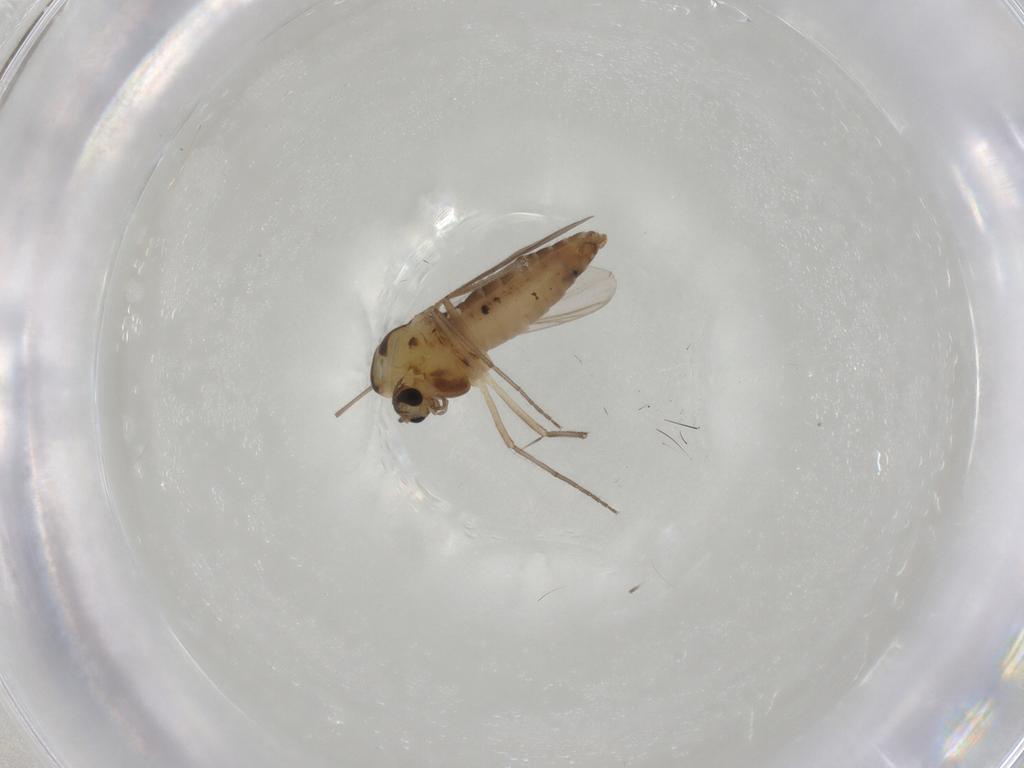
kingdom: Animalia
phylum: Arthropoda
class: Insecta
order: Diptera
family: Chironomidae
